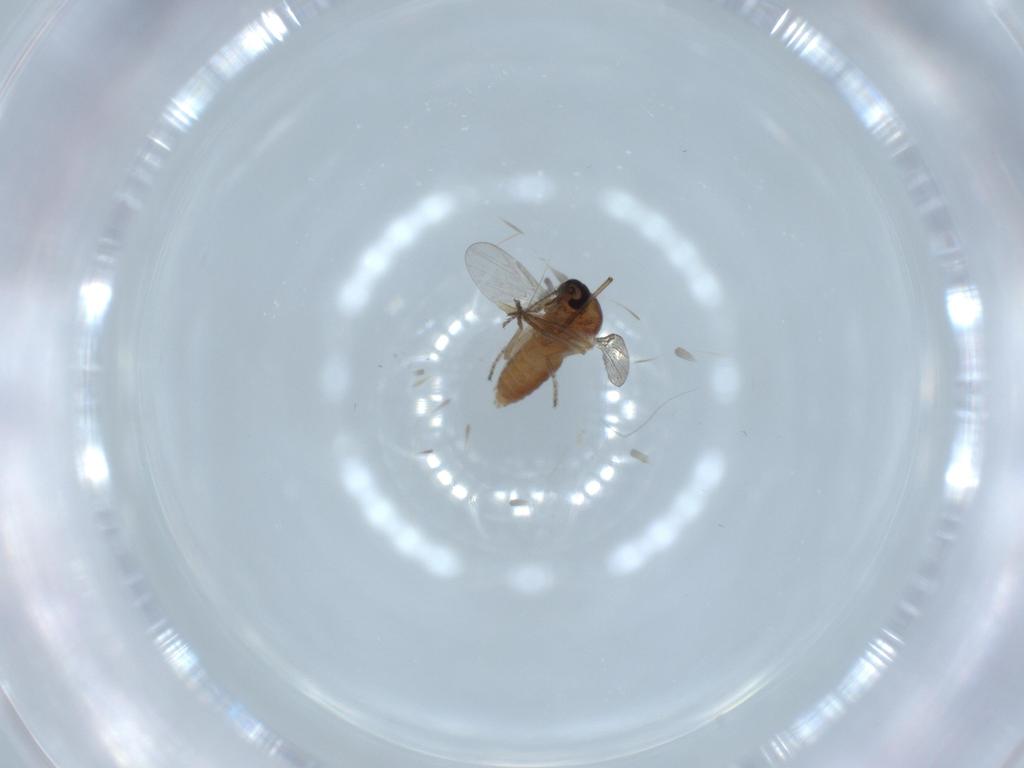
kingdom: Animalia
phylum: Arthropoda
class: Insecta
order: Diptera
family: Ceratopogonidae
